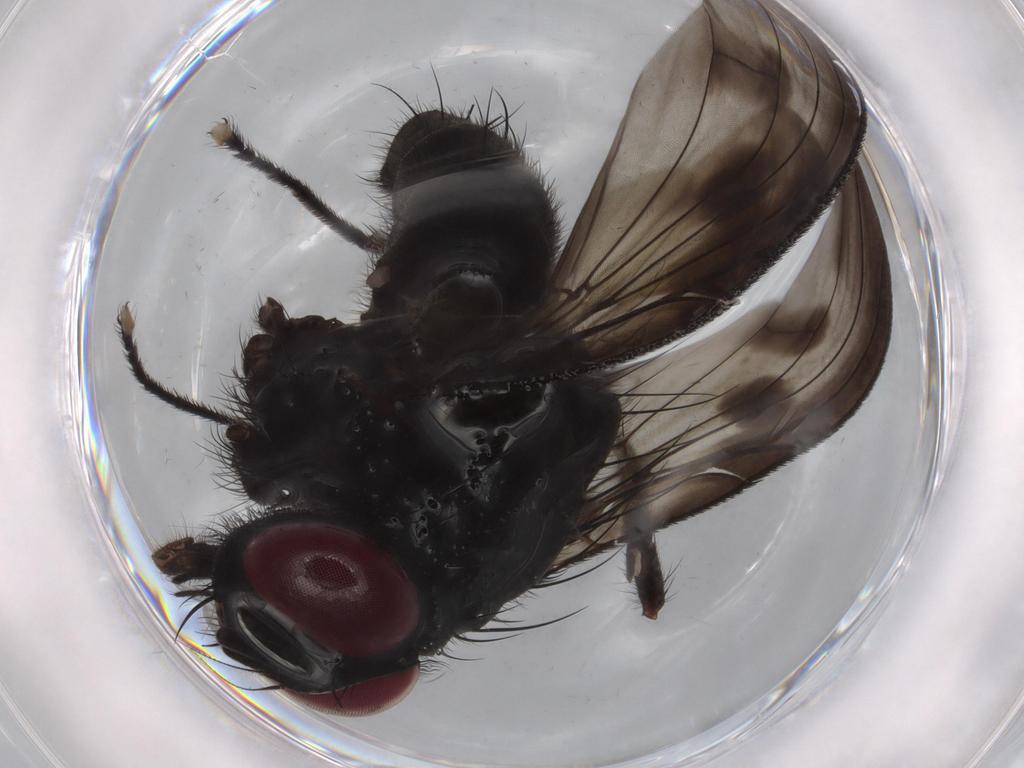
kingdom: Animalia
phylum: Arthropoda
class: Insecta
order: Diptera
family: Muscidae
